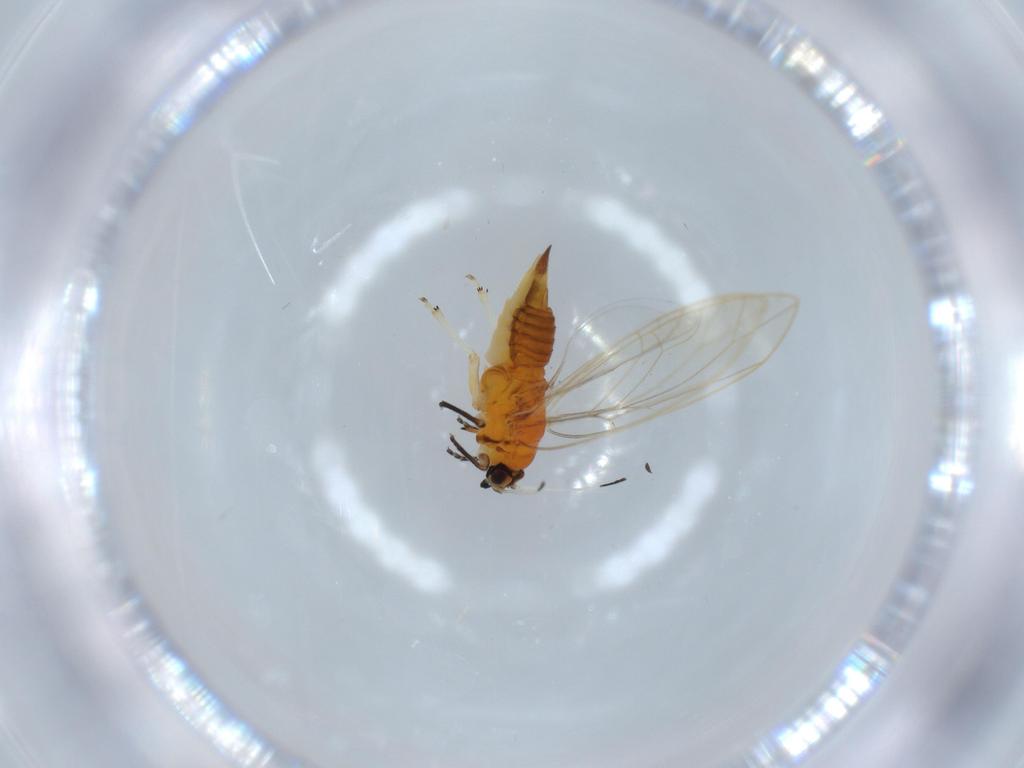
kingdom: Animalia
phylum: Arthropoda
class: Insecta
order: Hemiptera
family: Triozidae
